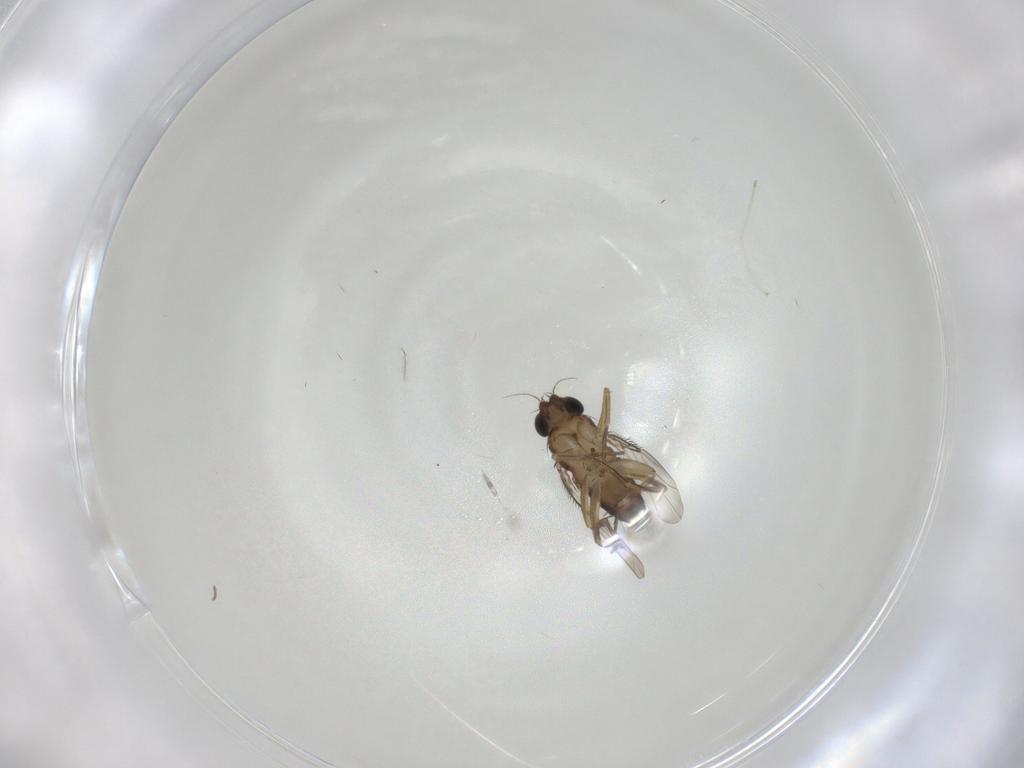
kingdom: Animalia
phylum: Arthropoda
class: Insecta
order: Diptera
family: Phoridae
